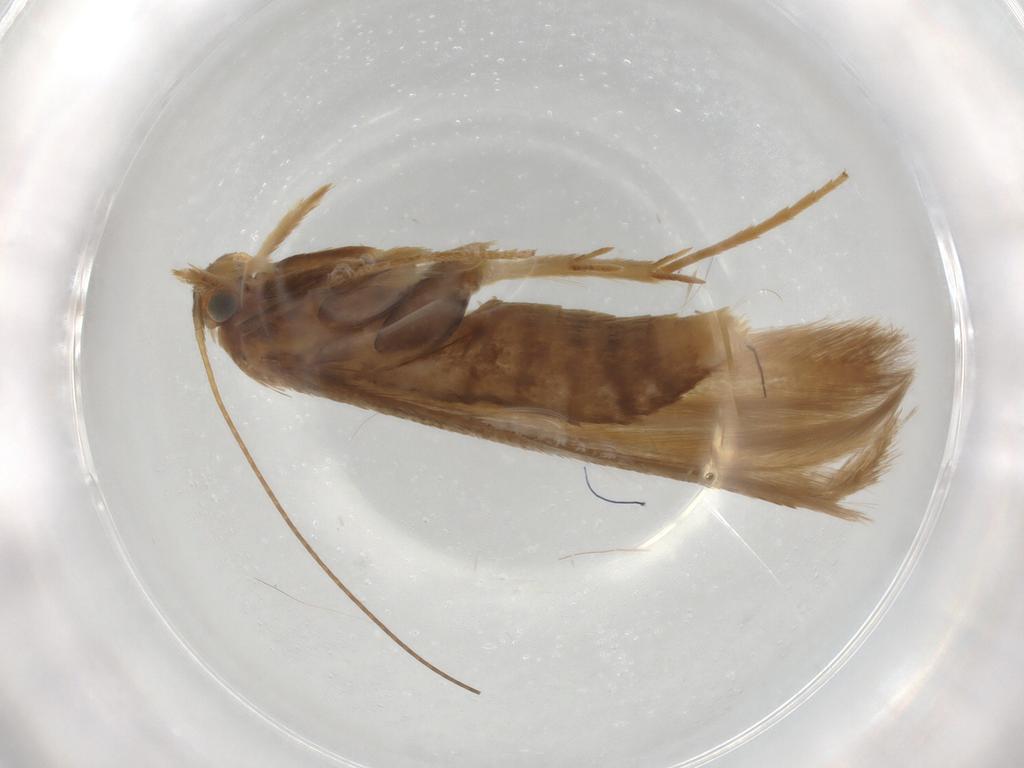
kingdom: Animalia
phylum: Arthropoda
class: Insecta
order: Lepidoptera
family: Coleophoridae
